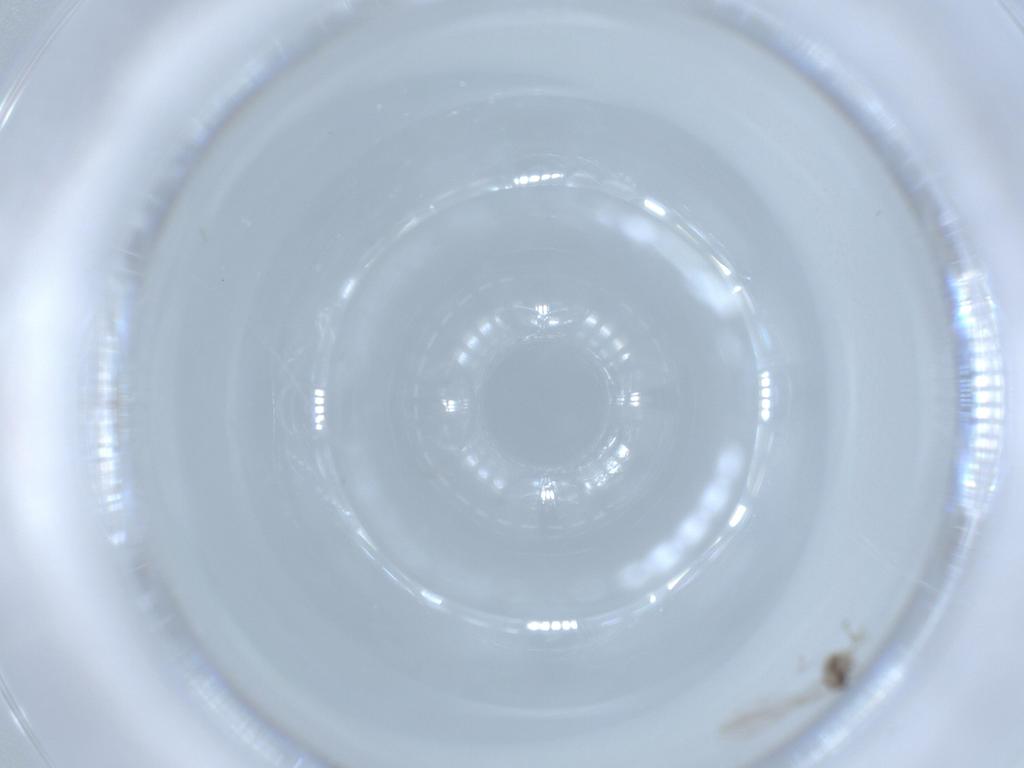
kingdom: Animalia
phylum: Arthropoda
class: Insecta
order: Diptera
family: Cecidomyiidae
